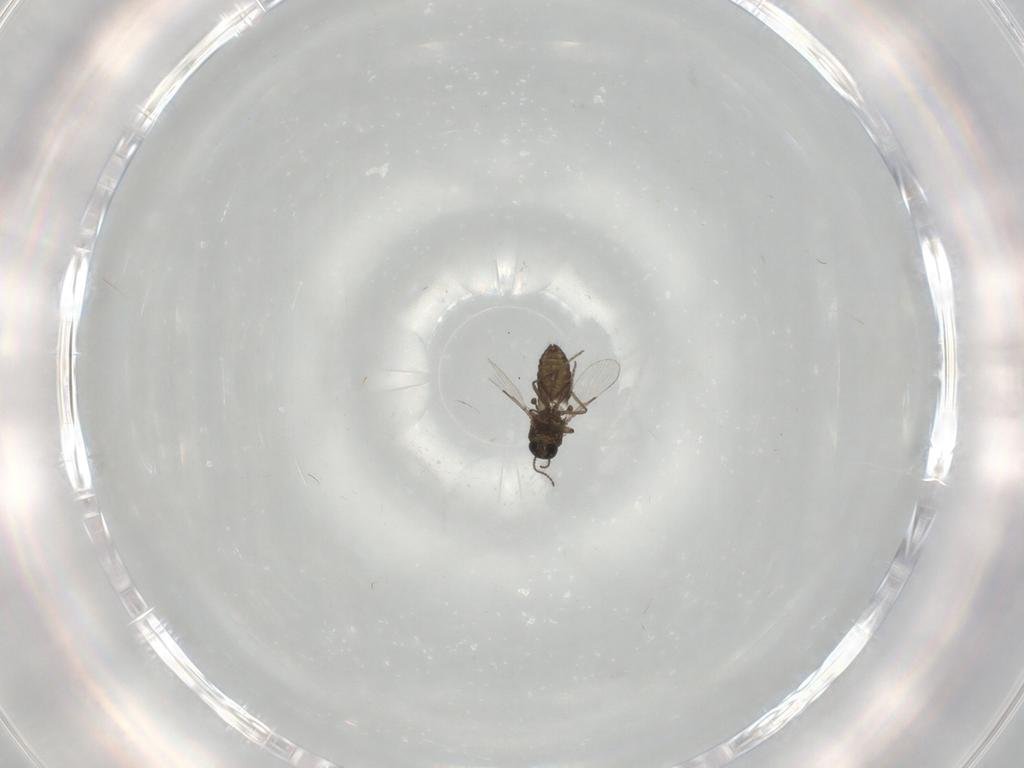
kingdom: Animalia
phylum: Arthropoda
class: Insecta
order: Diptera
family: Ceratopogonidae
